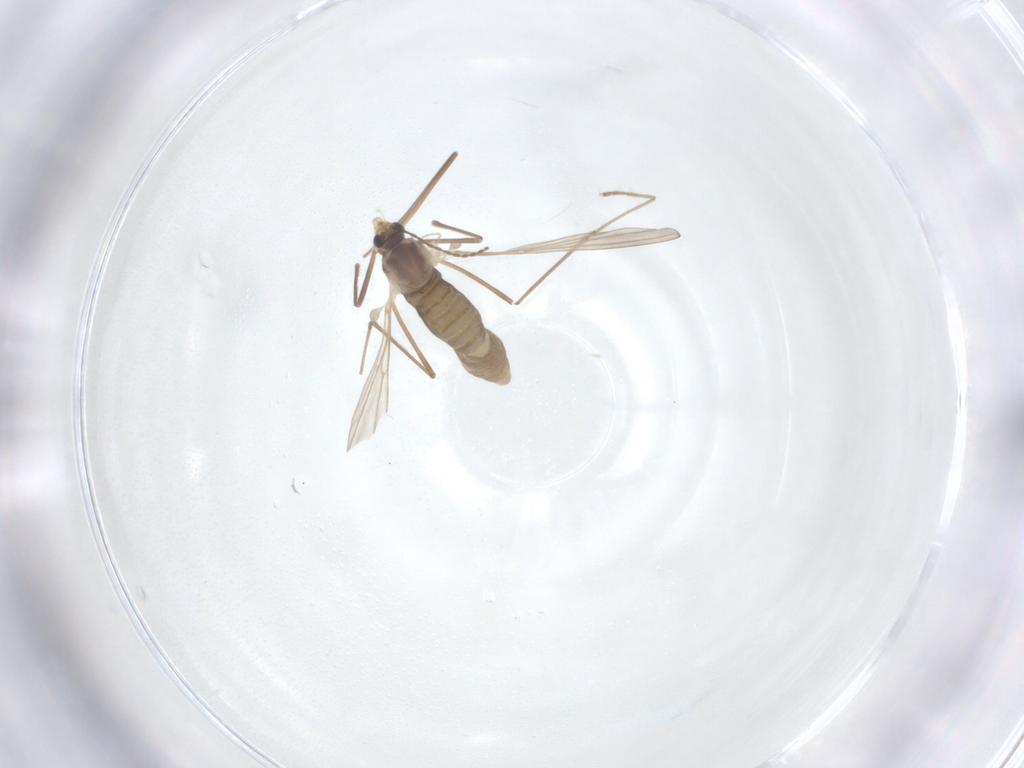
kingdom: Animalia
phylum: Arthropoda
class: Insecta
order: Diptera
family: Cecidomyiidae
